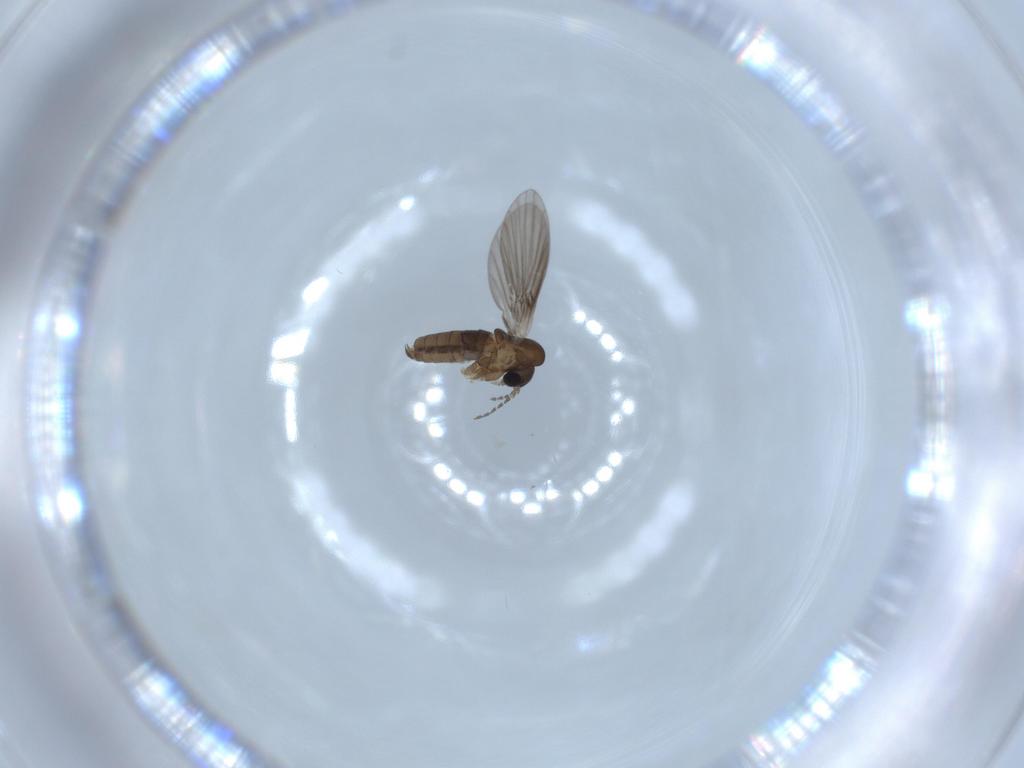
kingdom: Animalia
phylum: Arthropoda
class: Insecta
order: Diptera
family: Psychodidae
